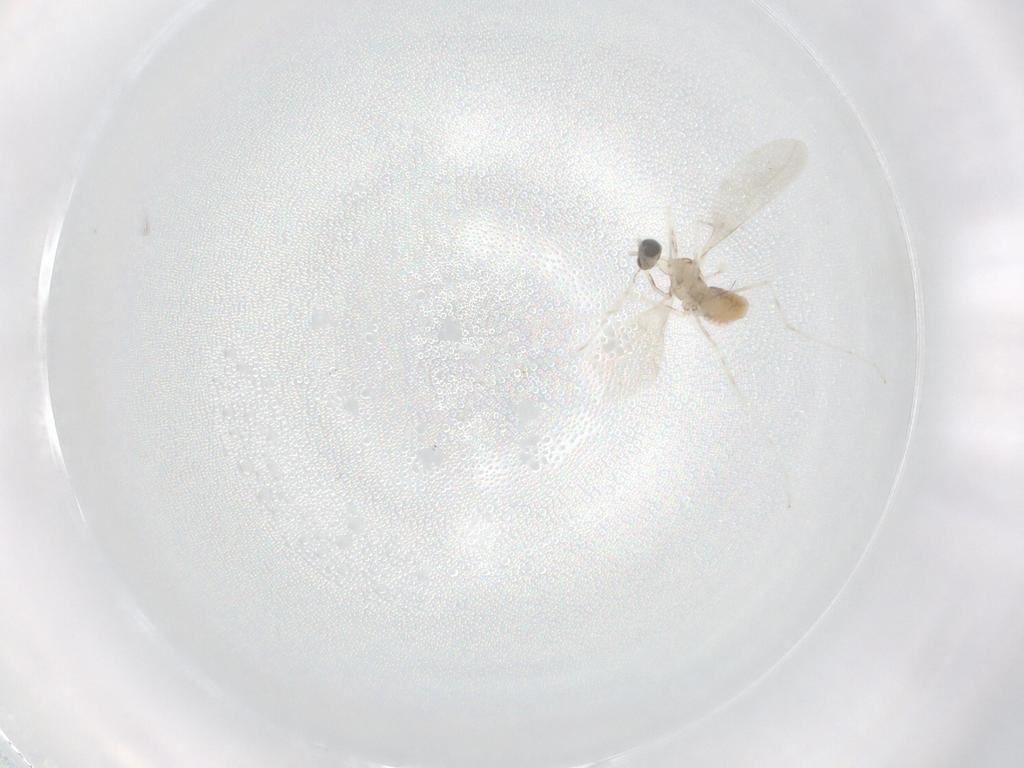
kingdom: Animalia
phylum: Arthropoda
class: Insecta
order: Diptera
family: Cecidomyiidae
